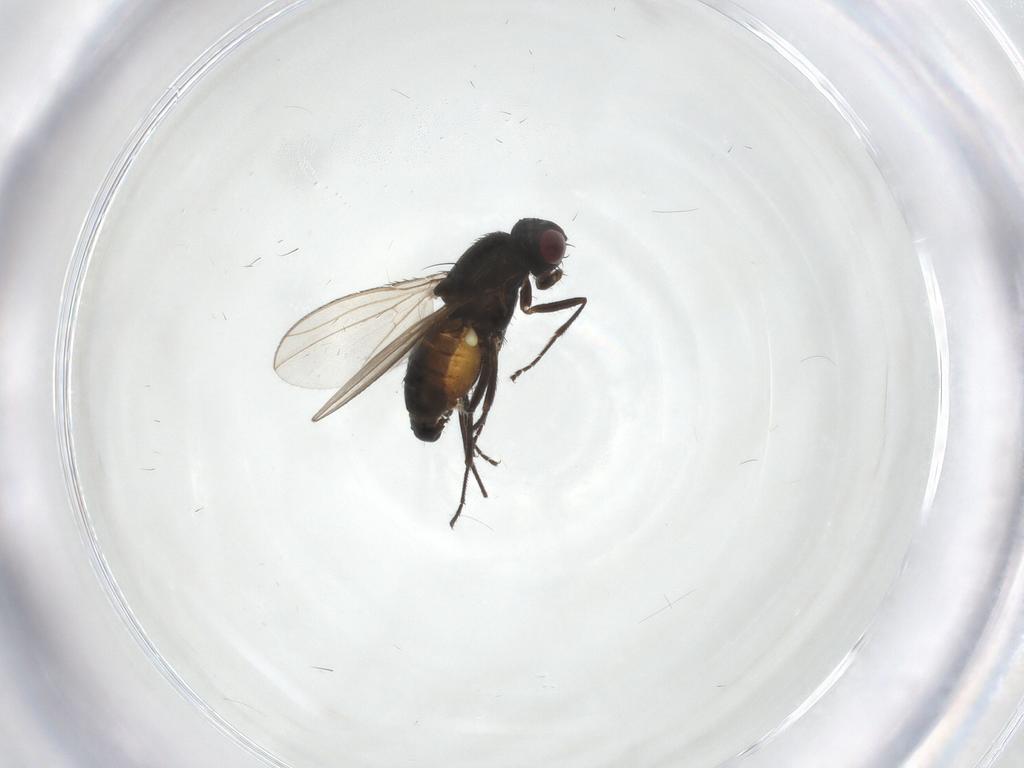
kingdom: Animalia
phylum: Arthropoda
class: Insecta
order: Diptera
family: Carnidae
